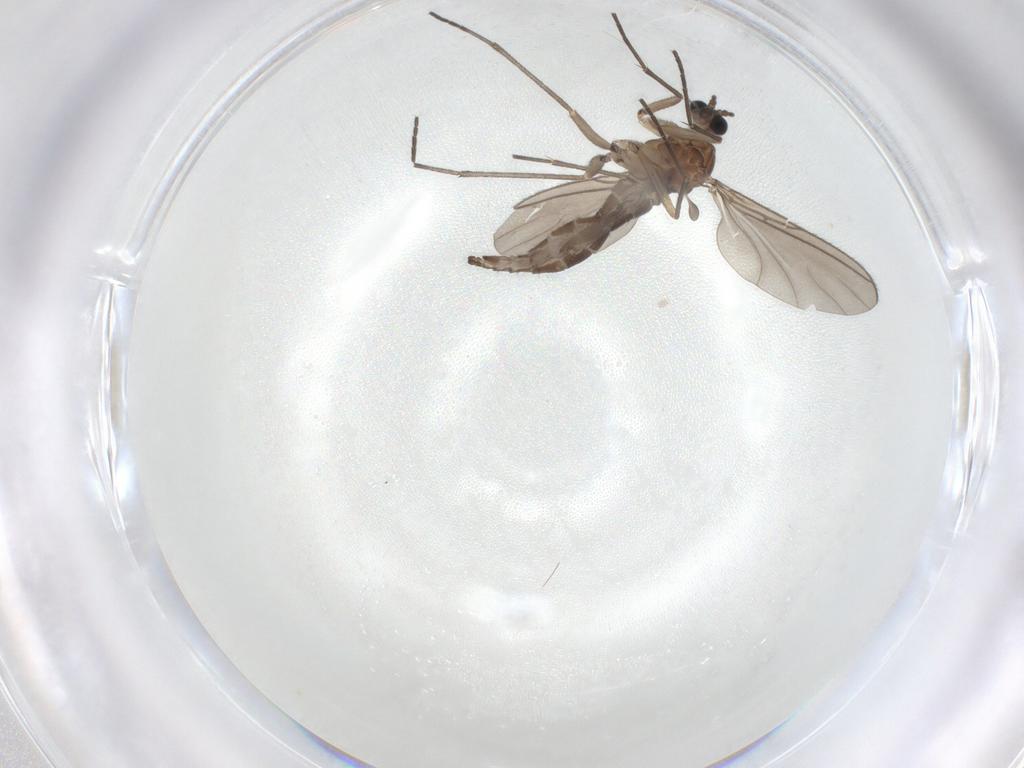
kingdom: Animalia
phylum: Arthropoda
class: Insecta
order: Diptera
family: Cecidomyiidae
